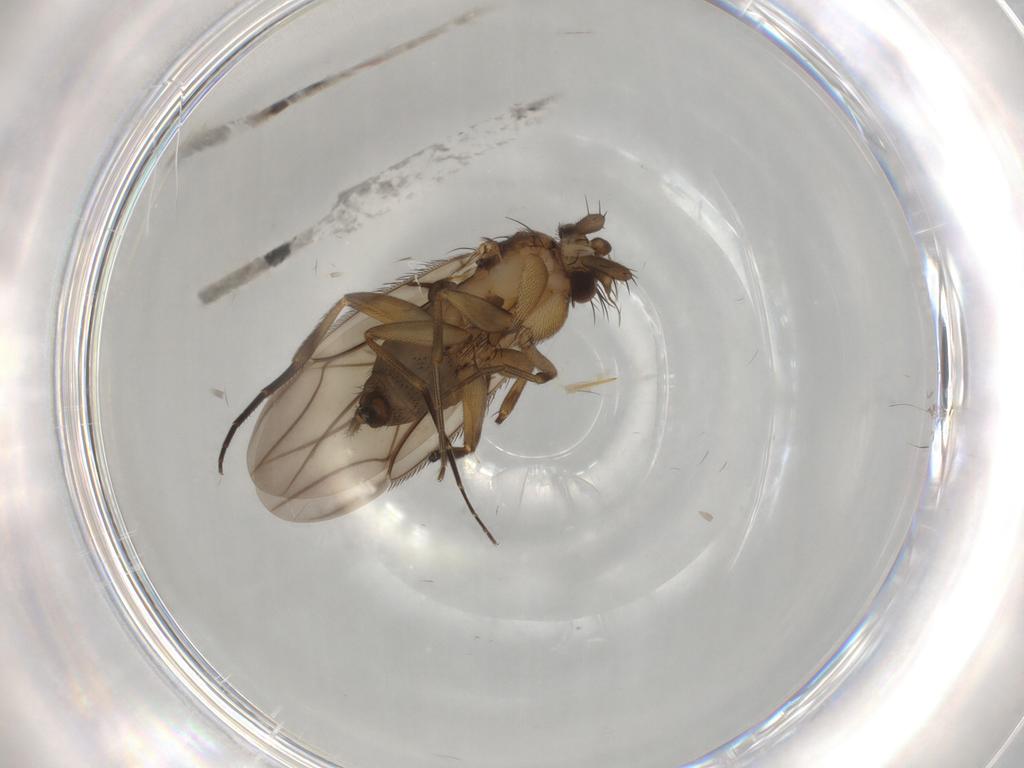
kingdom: Animalia
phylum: Arthropoda
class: Insecta
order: Diptera
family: Phoridae
